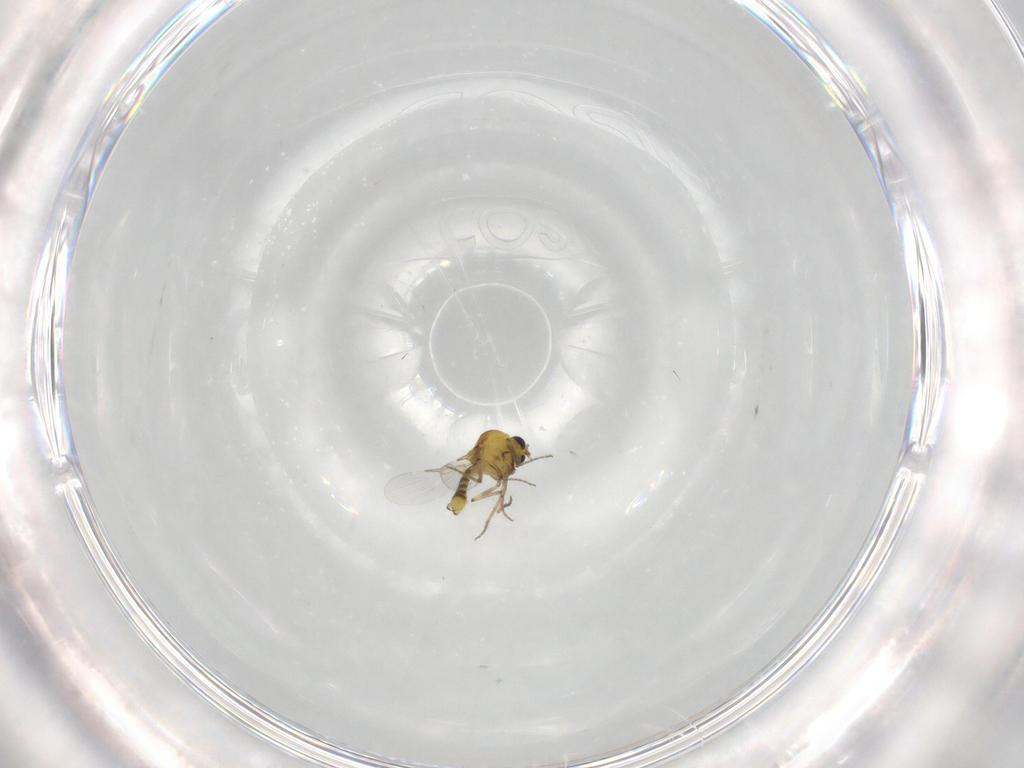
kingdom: Animalia
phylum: Arthropoda
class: Insecta
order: Diptera
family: Ceratopogonidae
